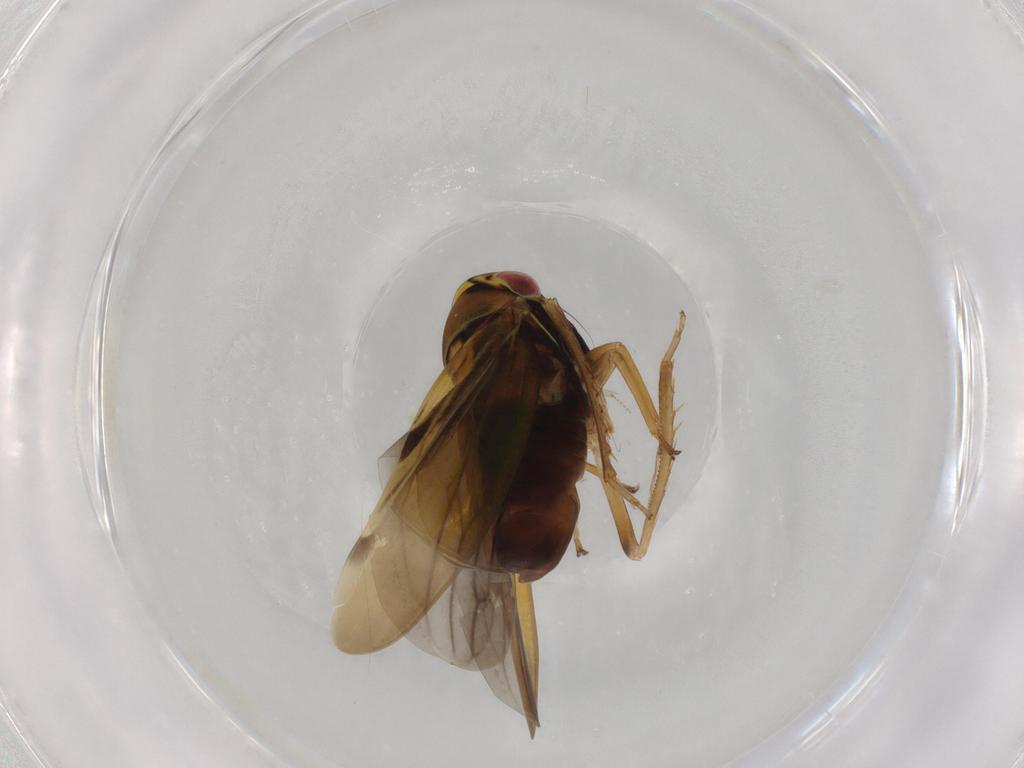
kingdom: Animalia
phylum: Arthropoda
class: Insecta
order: Hemiptera
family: Cicadellidae
